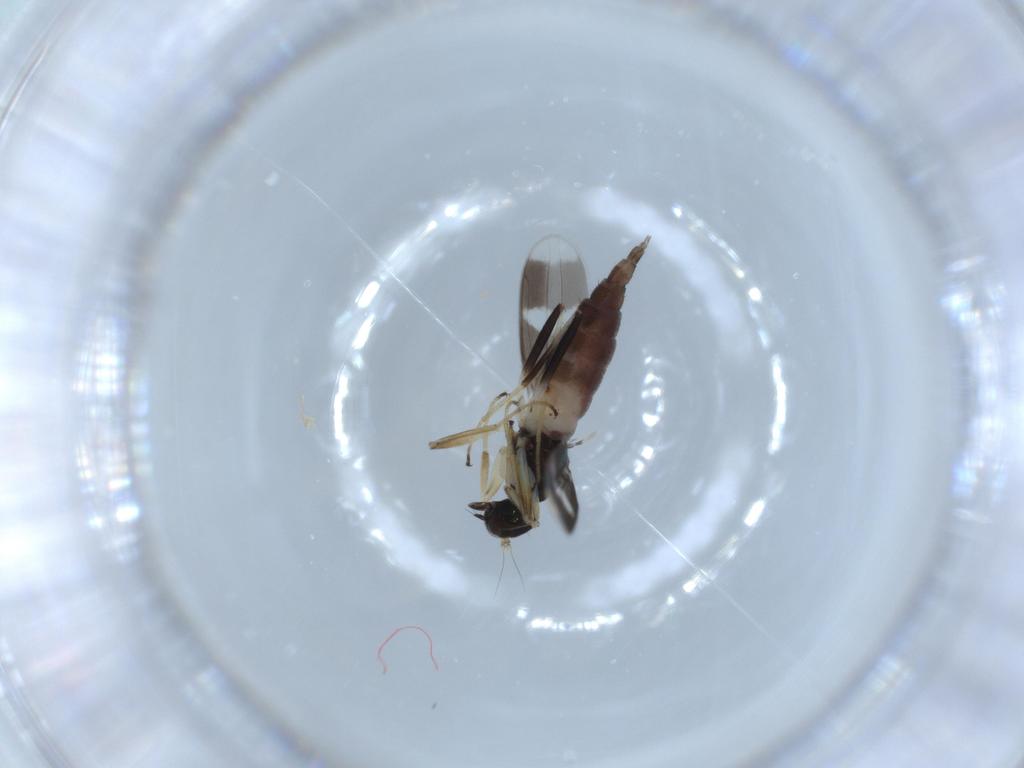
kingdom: Animalia
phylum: Arthropoda
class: Insecta
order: Diptera
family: Hybotidae
